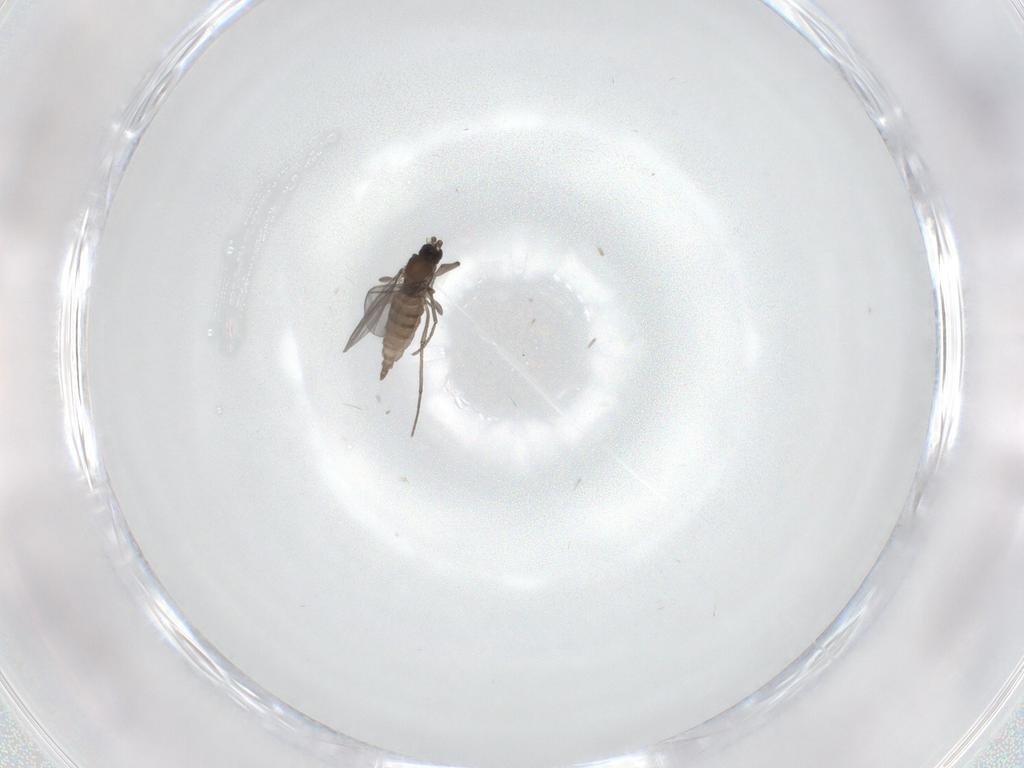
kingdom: Animalia
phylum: Arthropoda
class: Insecta
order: Diptera
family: Sciaridae
